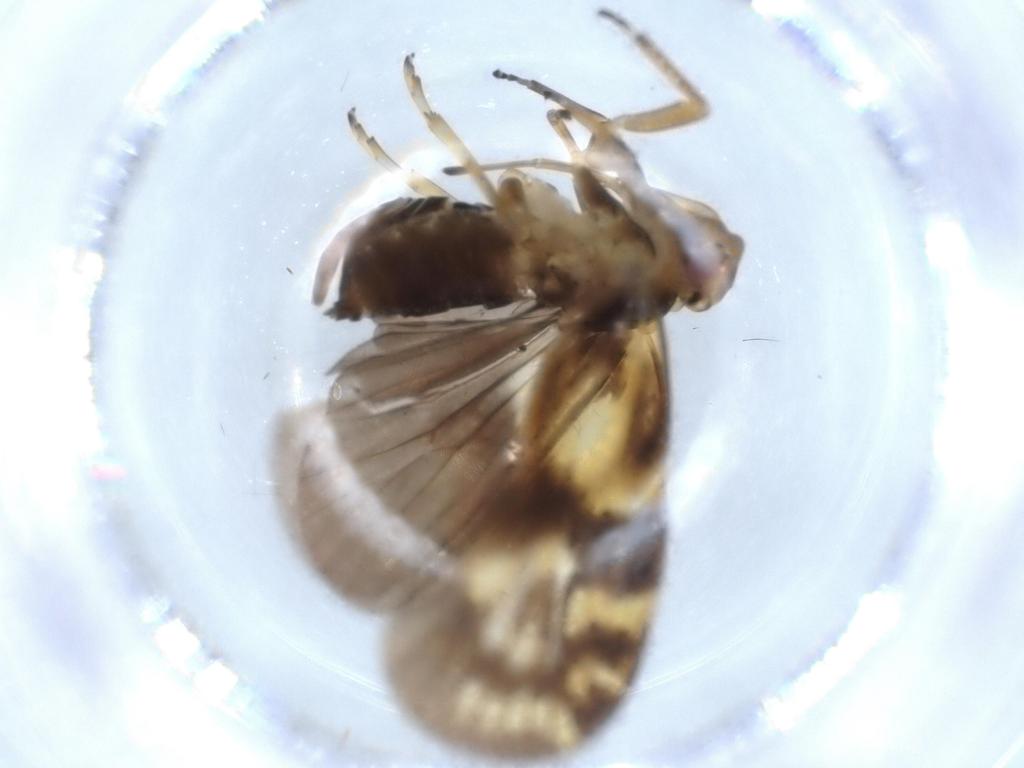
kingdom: Animalia
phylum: Arthropoda
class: Insecta
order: Hemiptera
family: Cixiidae
